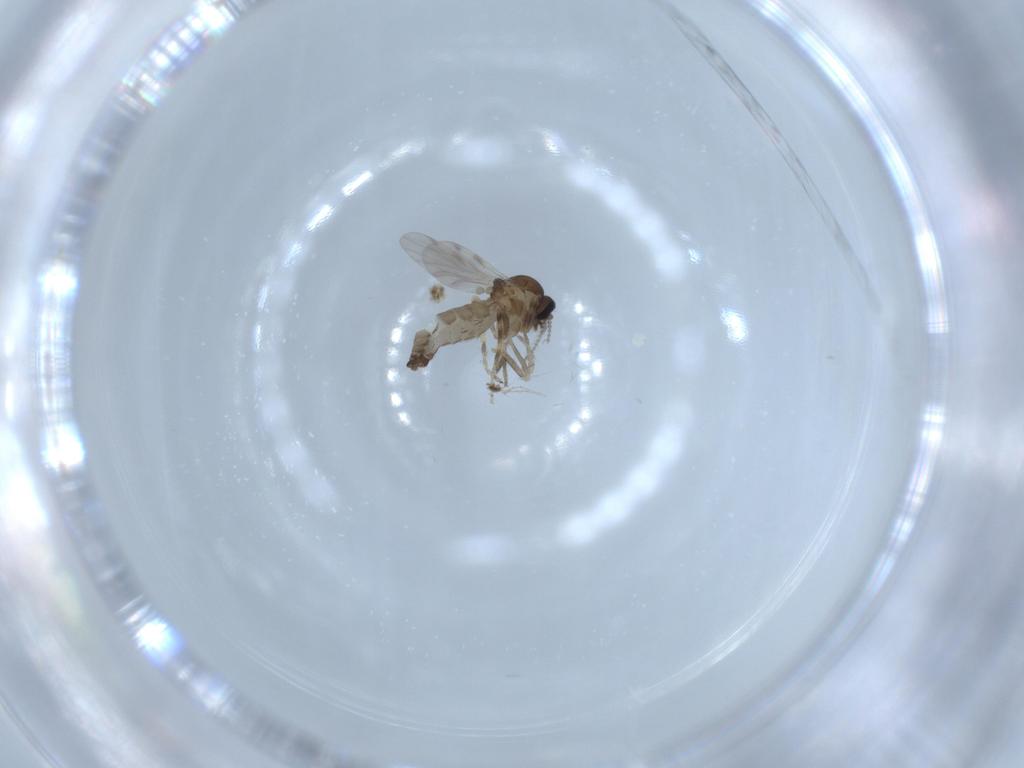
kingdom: Animalia
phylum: Arthropoda
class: Insecta
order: Diptera
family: Ceratopogonidae
